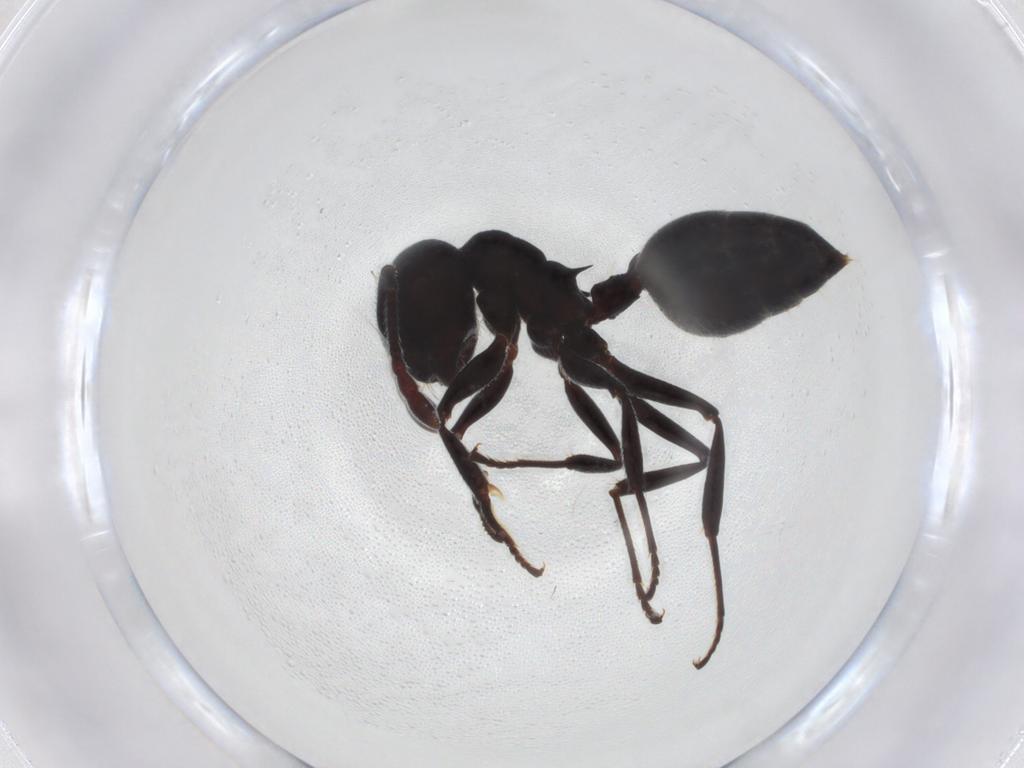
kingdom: Animalia
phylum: Arthropoda
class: Insecta
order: Hymenoptera
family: Formicidae
